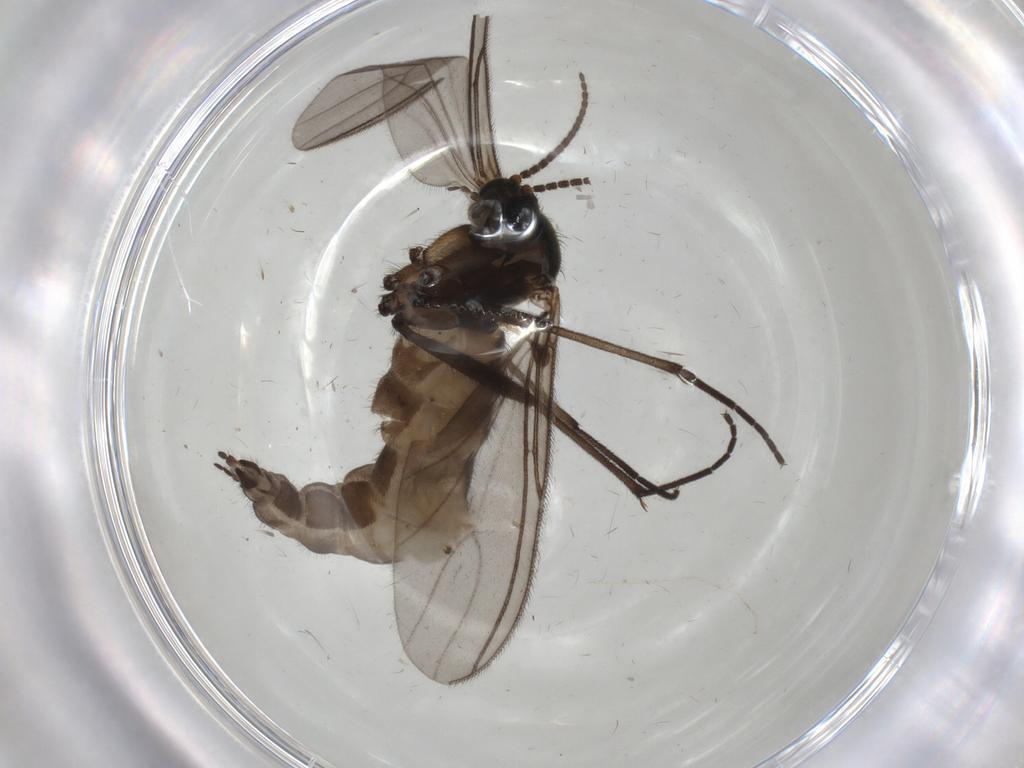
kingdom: Animalia
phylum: Arthropoda
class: Insecta
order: Diptera
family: Sciaridae
